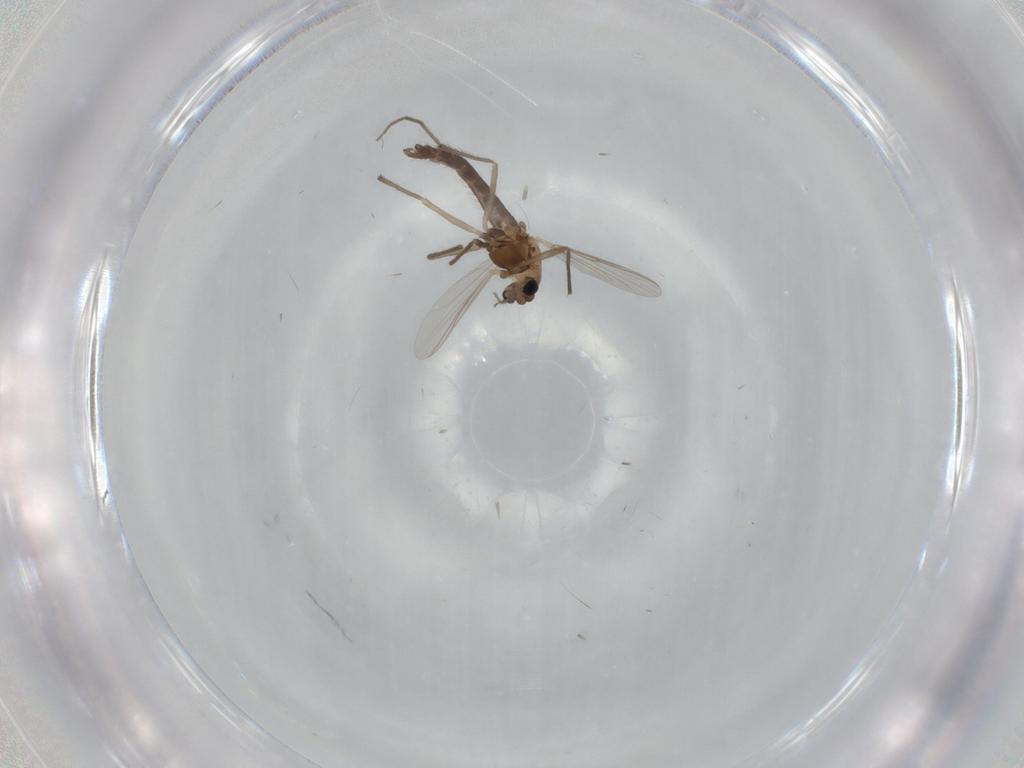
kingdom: Animalia
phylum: Arthropoda
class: Insecta
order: Diptera
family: Chironomidae
